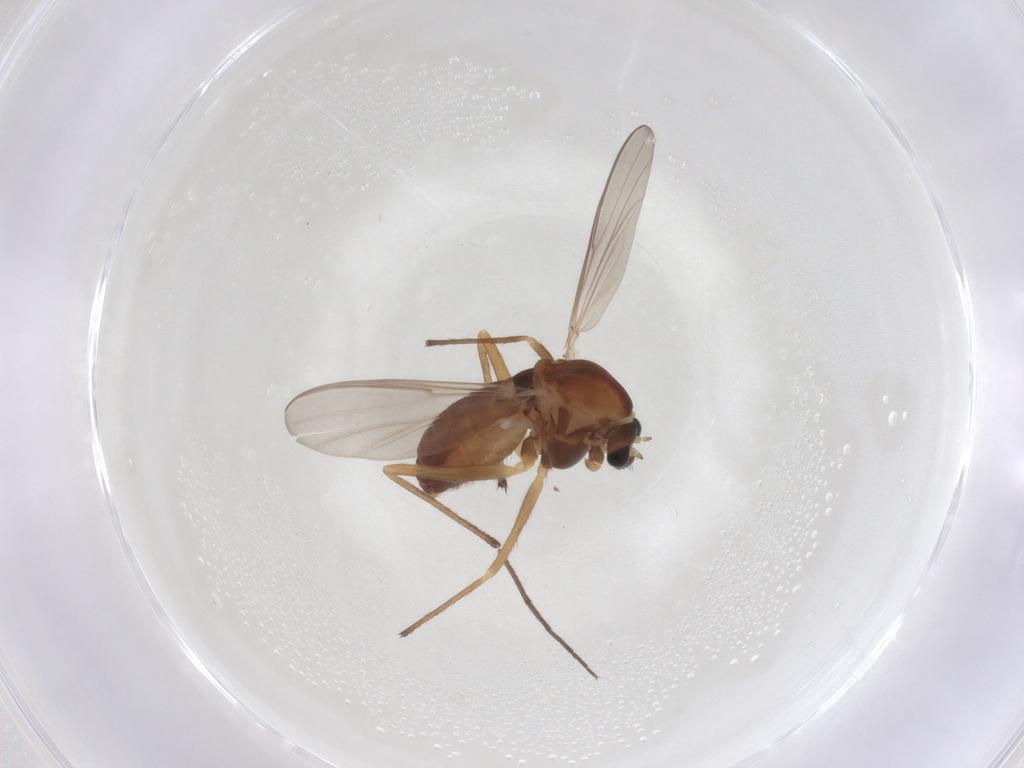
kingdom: Animalia
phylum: Arthropoda
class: Insecta
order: Diptera
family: Chironomidae
